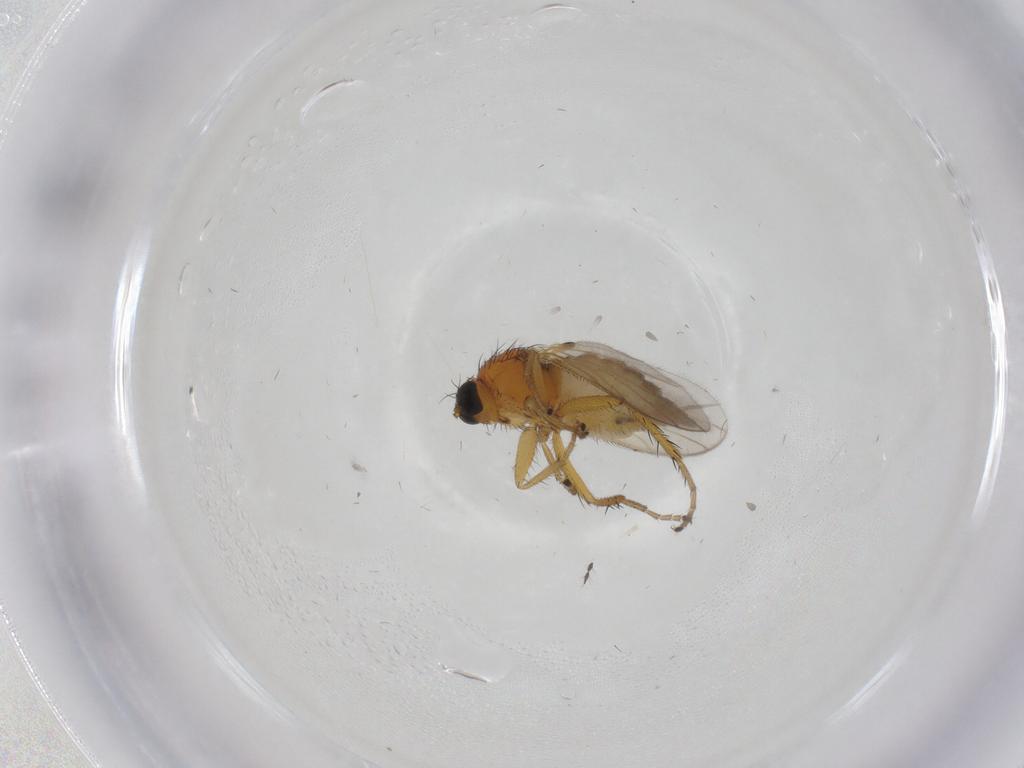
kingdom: Animalia
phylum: Arthropoda
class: Insecta
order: Diptera
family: Hybotidae
